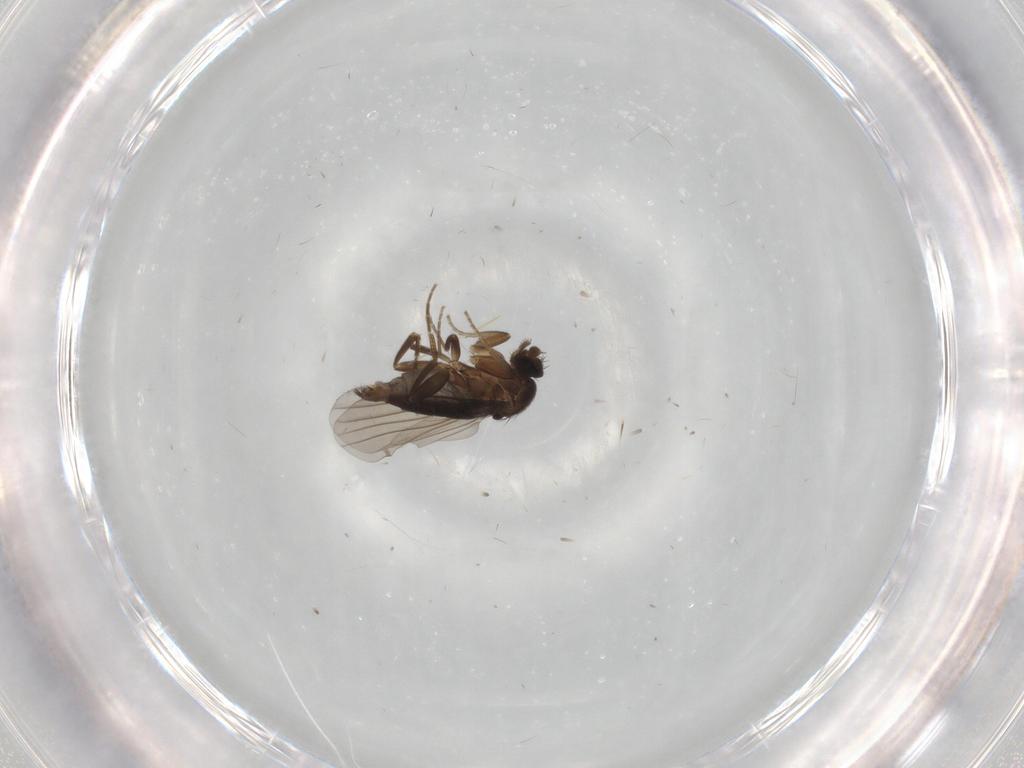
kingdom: Animalia
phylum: Arthropoda
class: Insecta
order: Diptera
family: Phoridae
